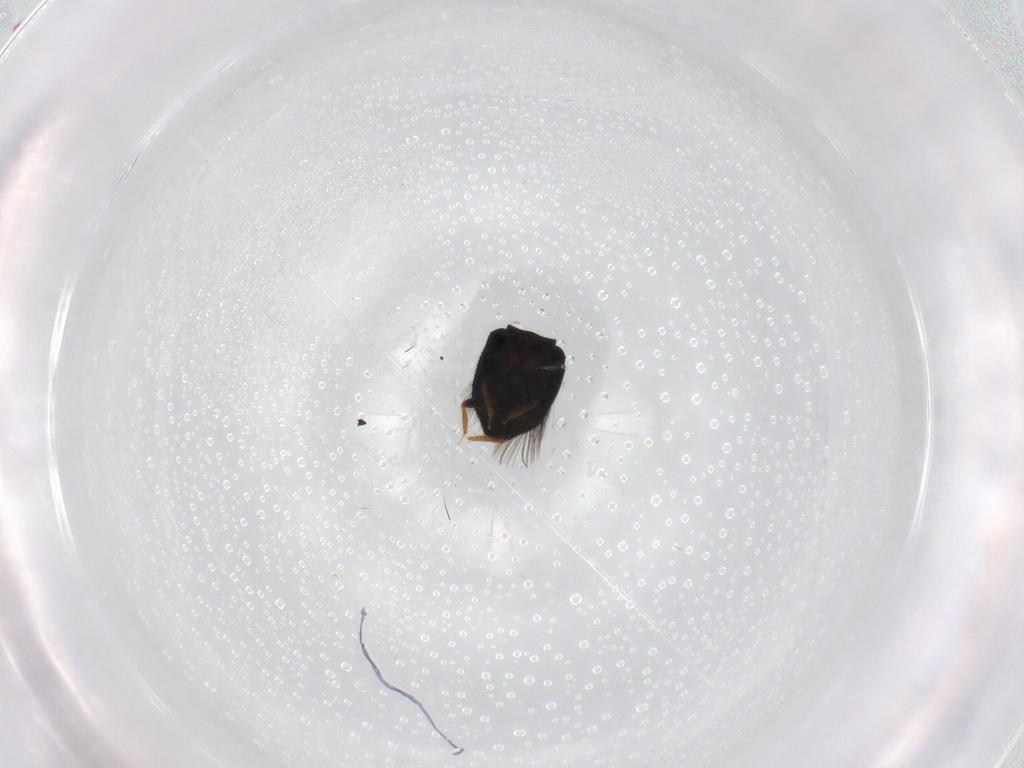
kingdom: Animalia
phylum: Arthropoda
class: Insecta
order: Coleoptera
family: Ptiliidae
